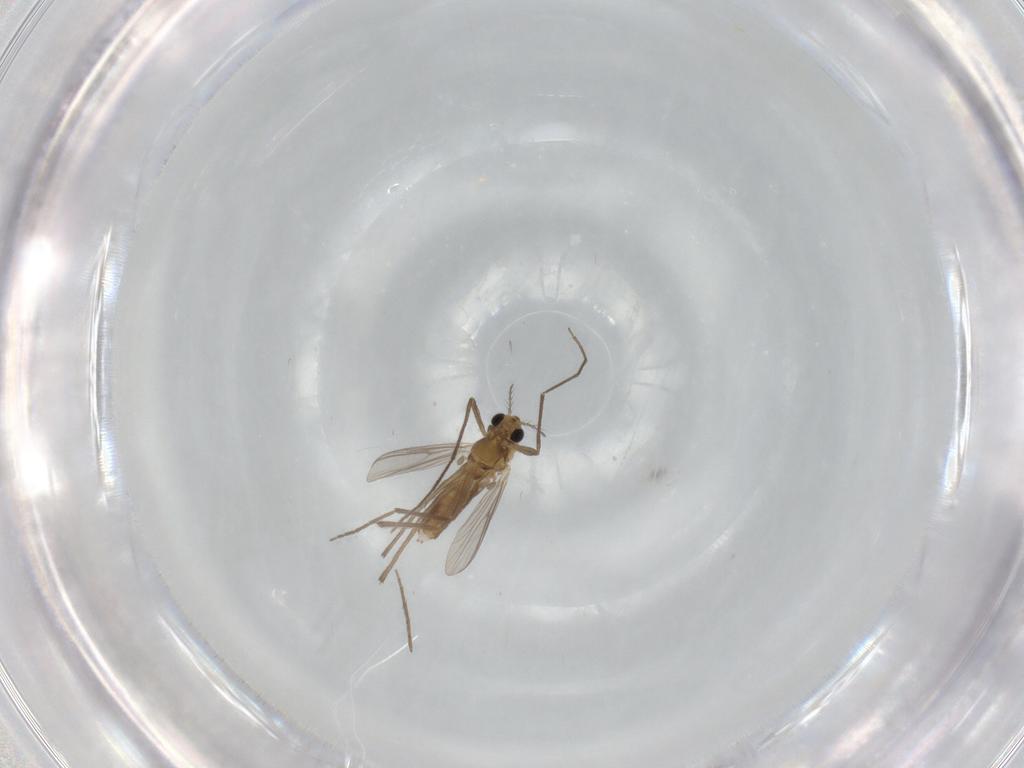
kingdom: Animalia
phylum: Arthropoda
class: Insecta
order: Diptera
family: Chironomidae
